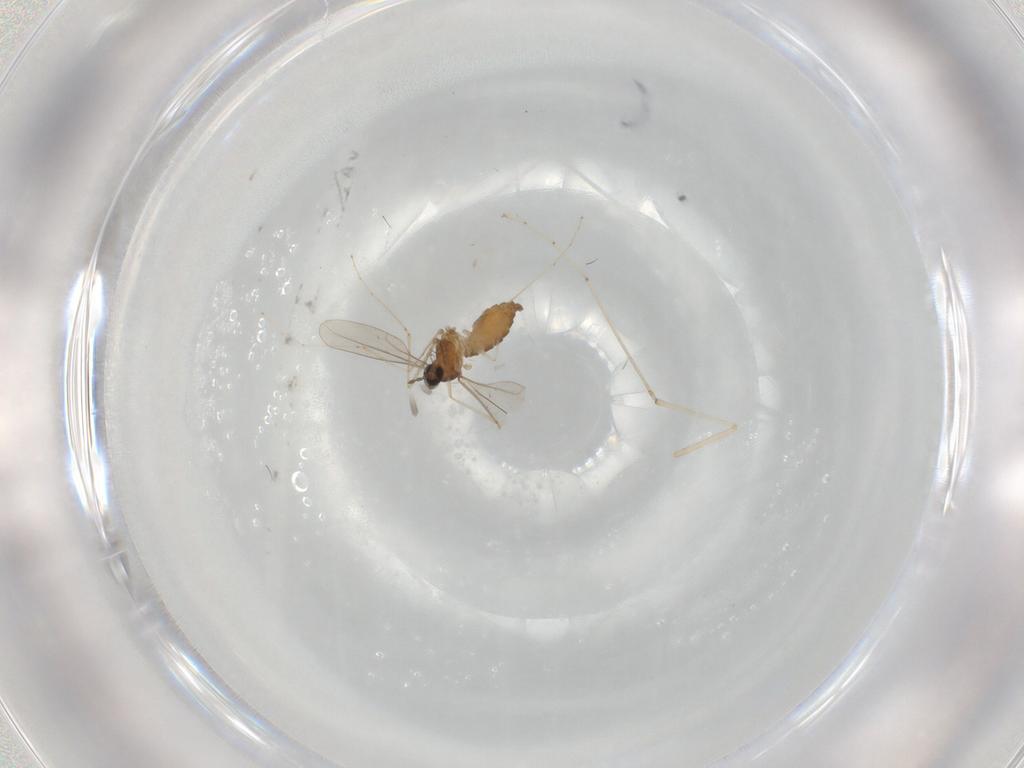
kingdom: Animalia
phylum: Arthropoda
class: Insecta
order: Diptera
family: Cecidomyiidae
